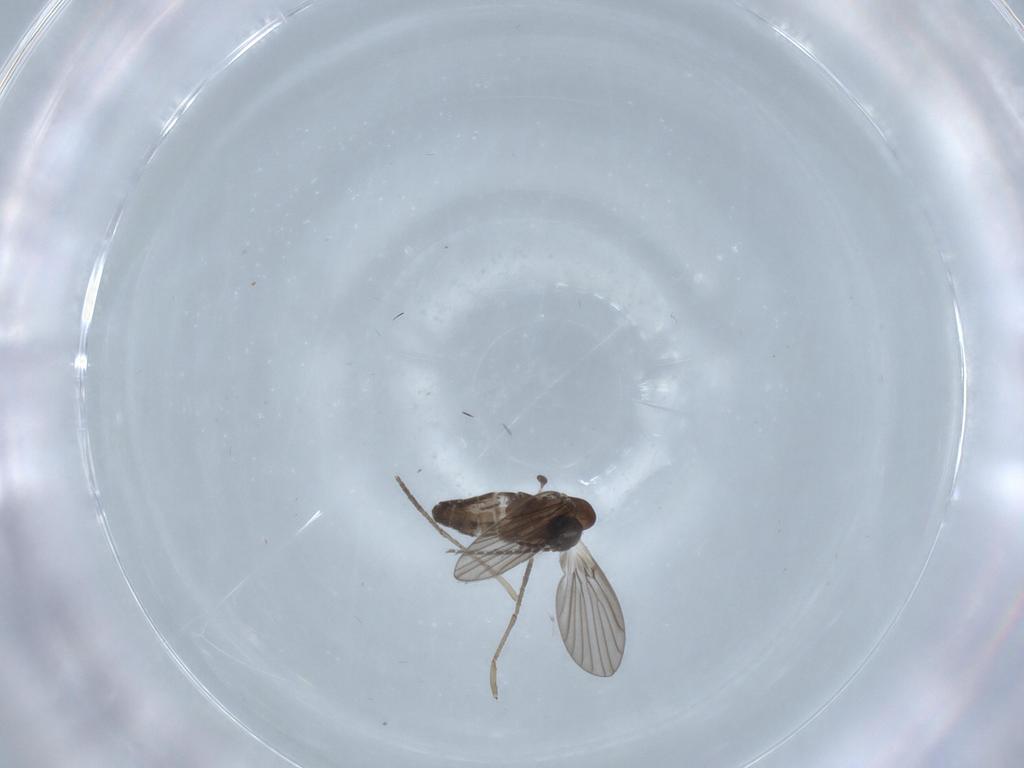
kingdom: Animalia
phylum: Arthropoda
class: Insecta
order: Diptera
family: Psychodidae
